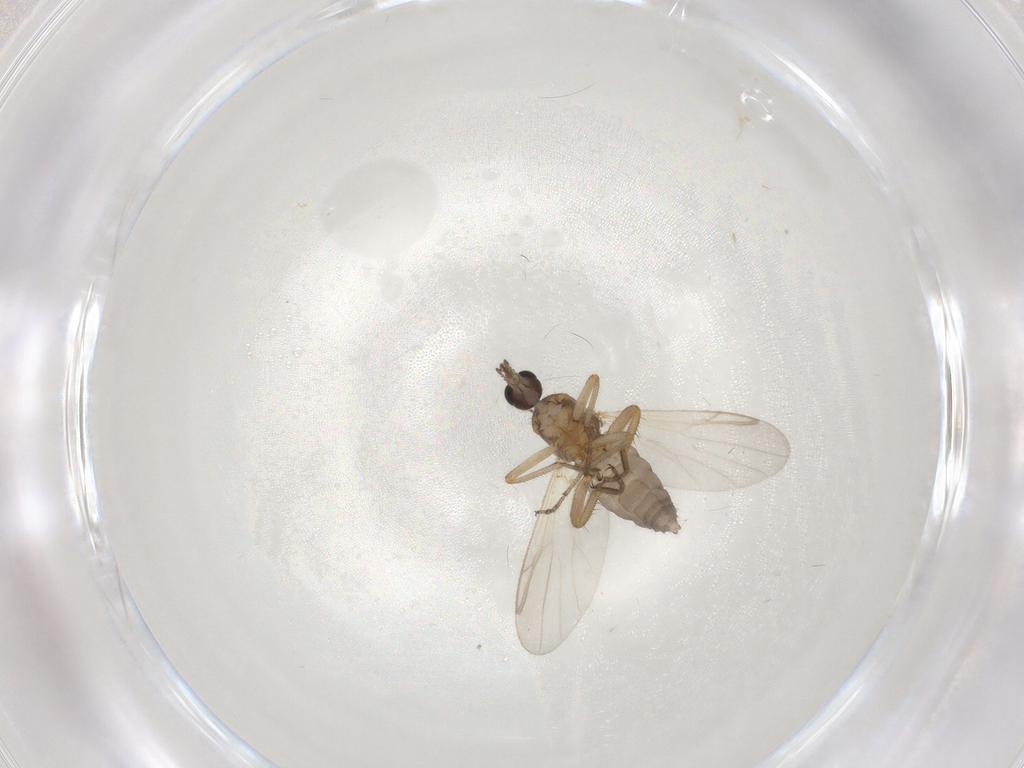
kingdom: Animalia
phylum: Arthropoda
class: Insecta
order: Diptera
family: Ceratopogonidae
